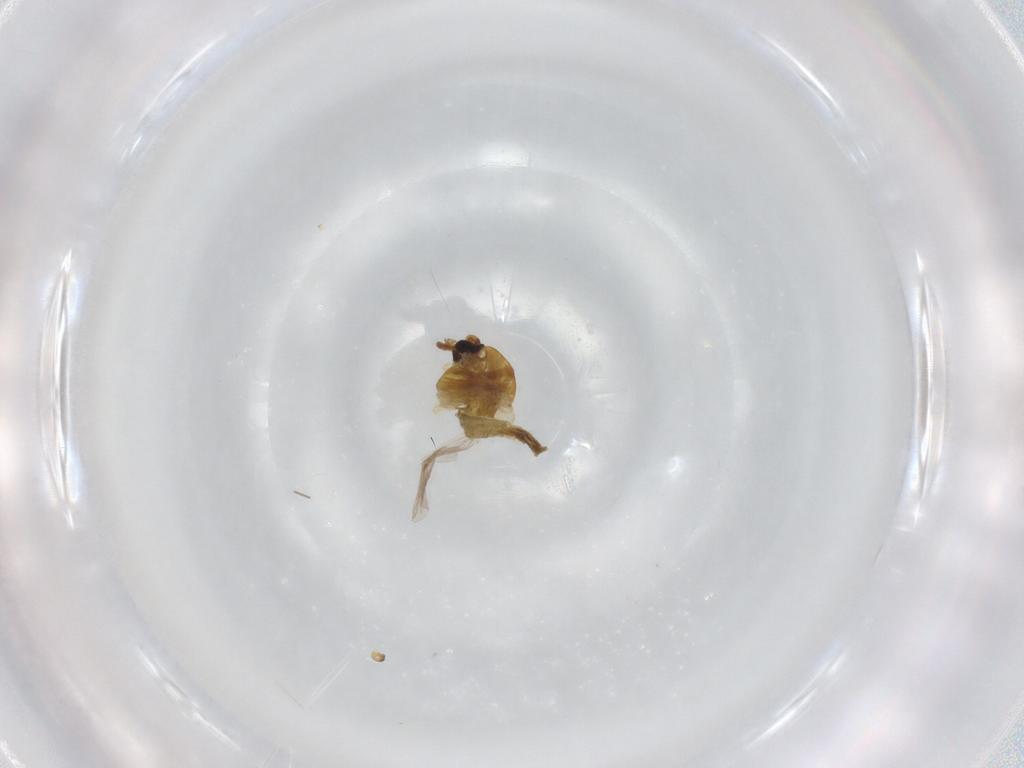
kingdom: Animalia
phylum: Arthropoda
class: Insecta
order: Diptera
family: Chironomidae
